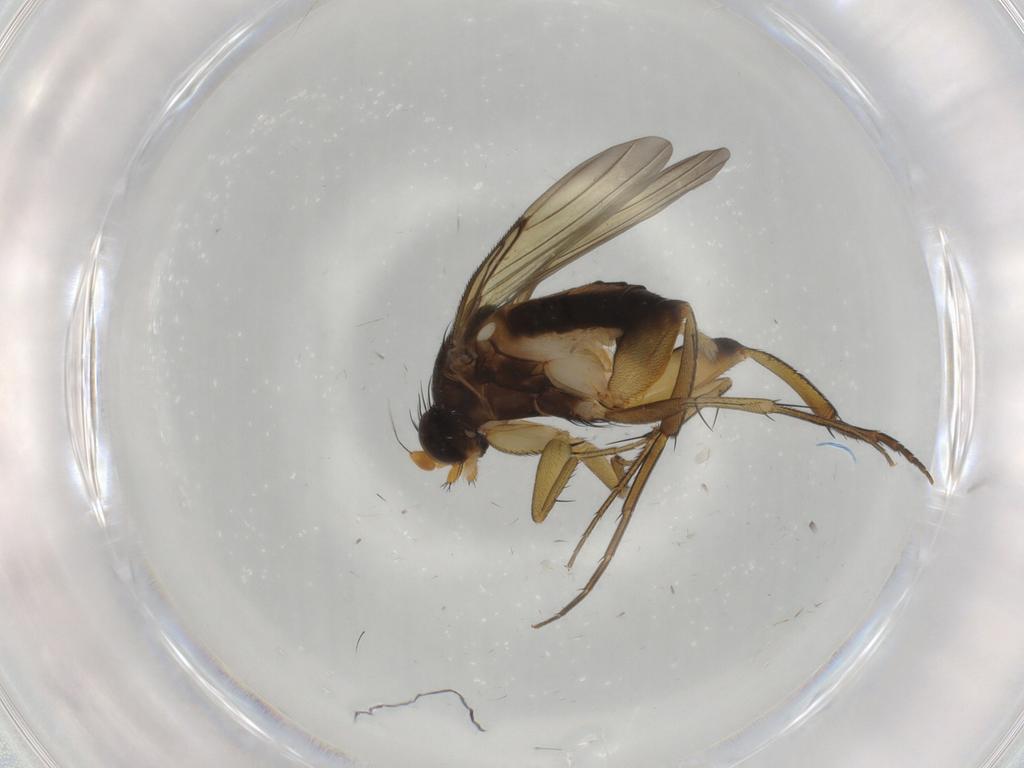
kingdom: Animalia
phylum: Arthropoda
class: Insecta
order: Diptera
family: Phoridae
